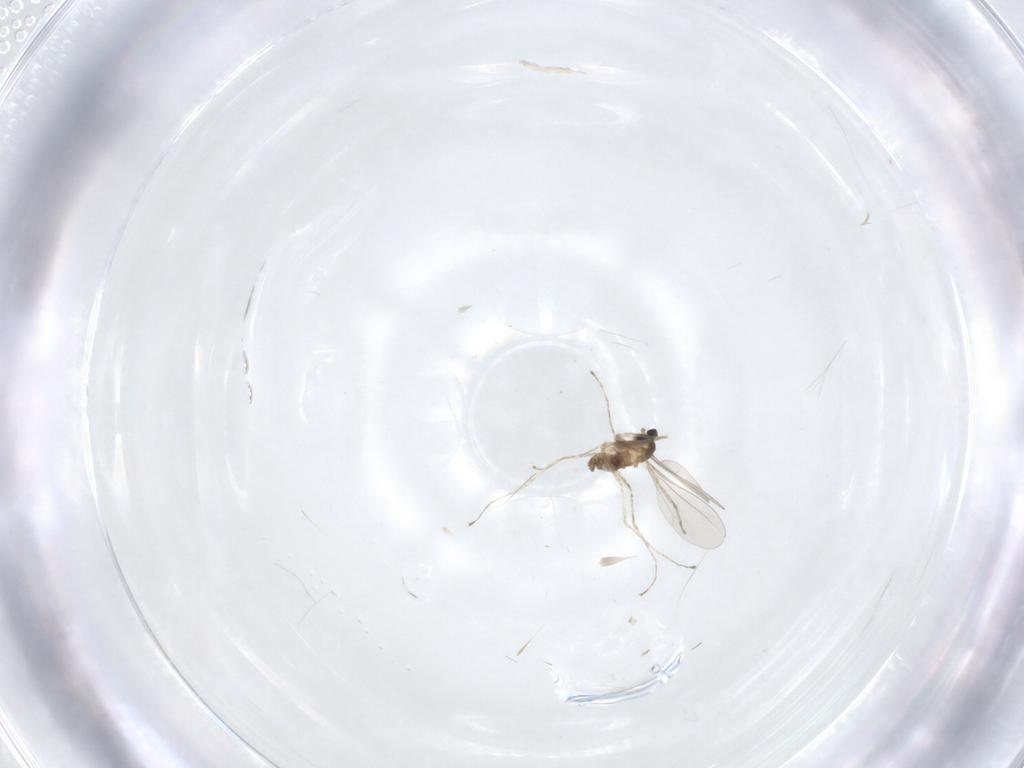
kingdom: Animalia
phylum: Arthropoda
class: Insecta
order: Diptera
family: Cecidomyiidae
